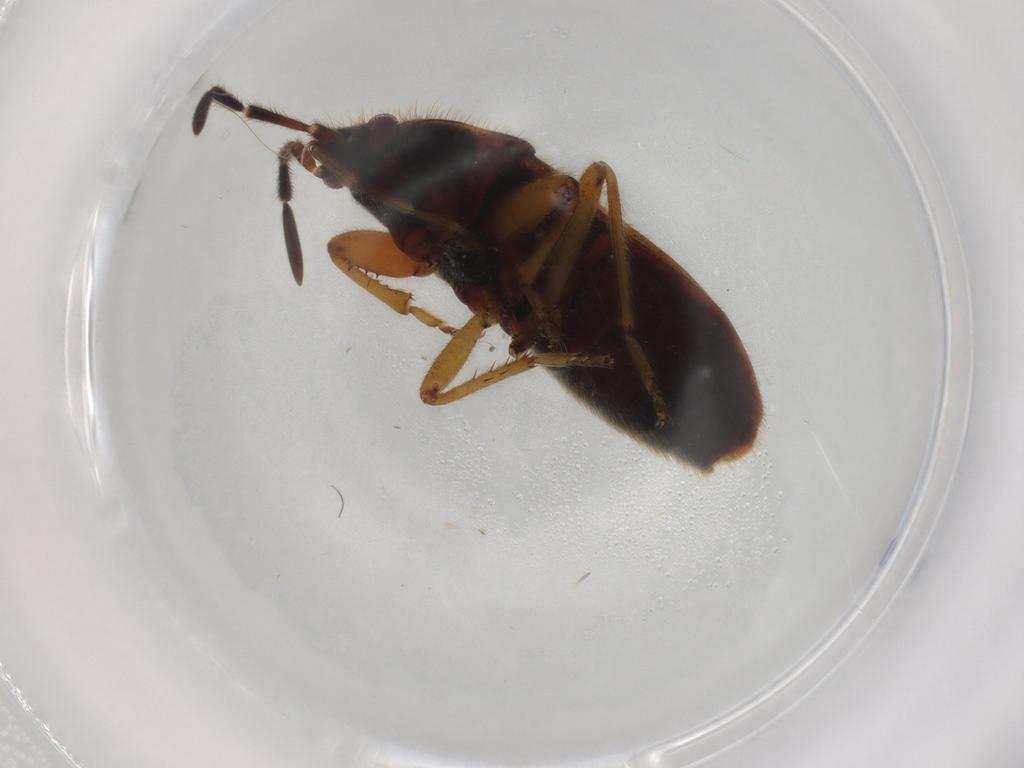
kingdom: Animalia
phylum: Arthropoda
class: Insecta
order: Hemiptera
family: Rhyparochromidae
